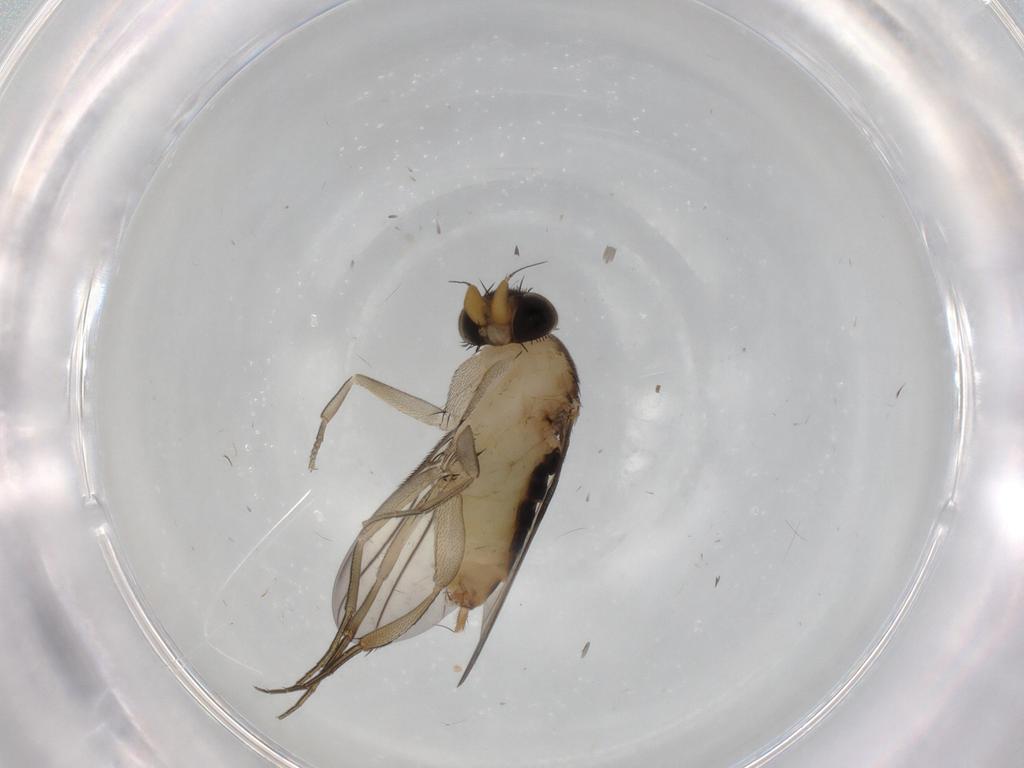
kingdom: Animalia
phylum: Arthropoda
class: Insecta
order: Diptera
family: Phoridae
